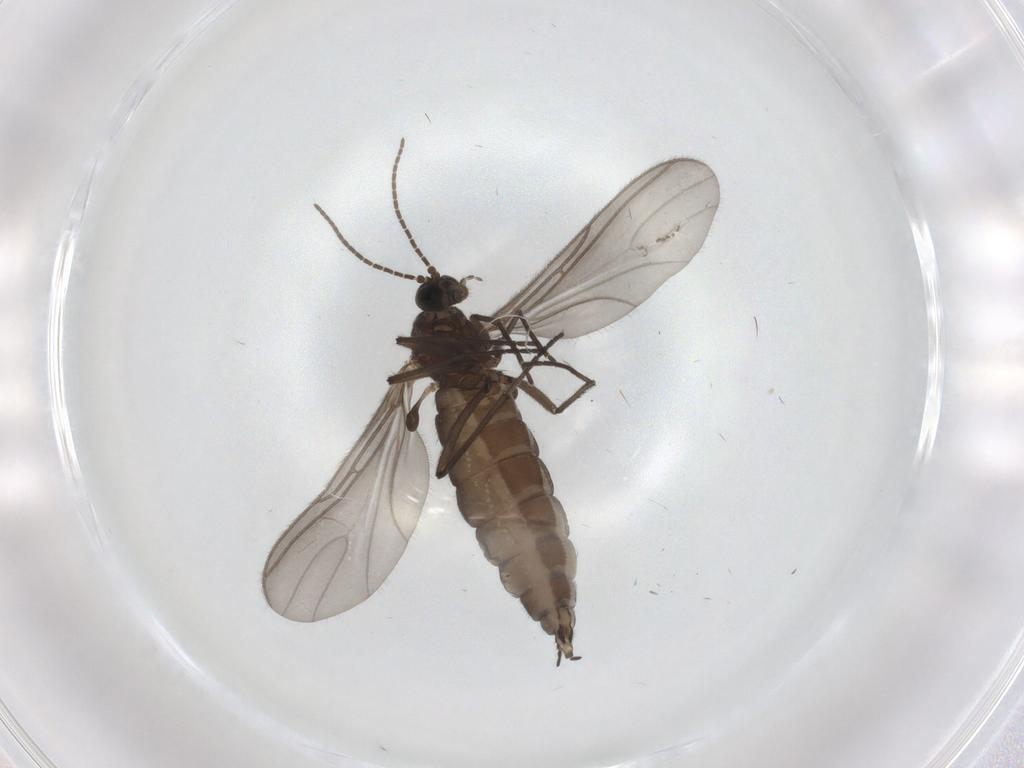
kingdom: Animalia
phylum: Arthropoda
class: Insecta
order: Diptera
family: Sciaridae
